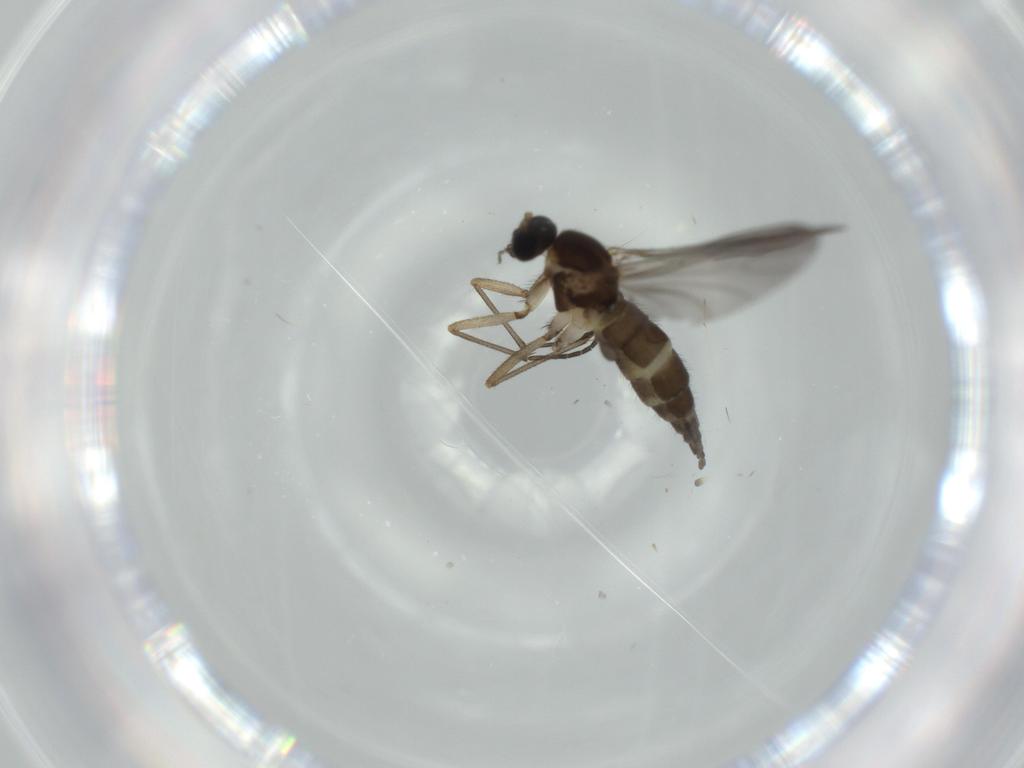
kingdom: Animalia
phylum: Arthropoda
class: Insecta
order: Diptera
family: Sciaridae
